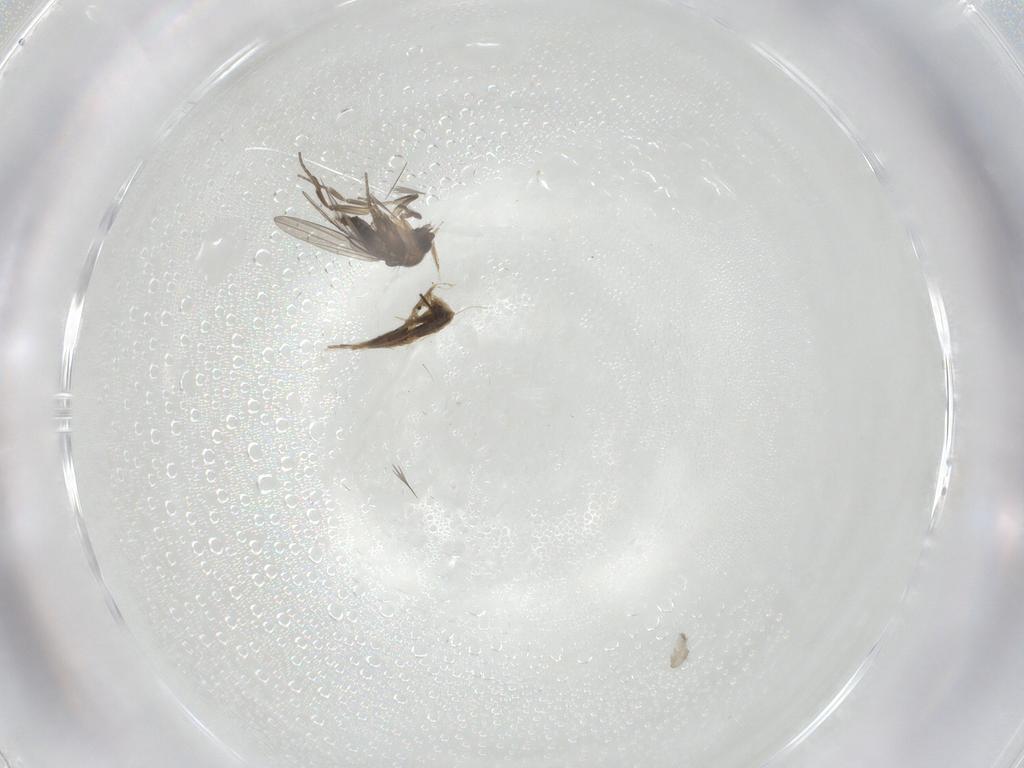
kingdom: Animalia
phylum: Arthropoda
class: Insecta
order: Diptera
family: Phoridae
